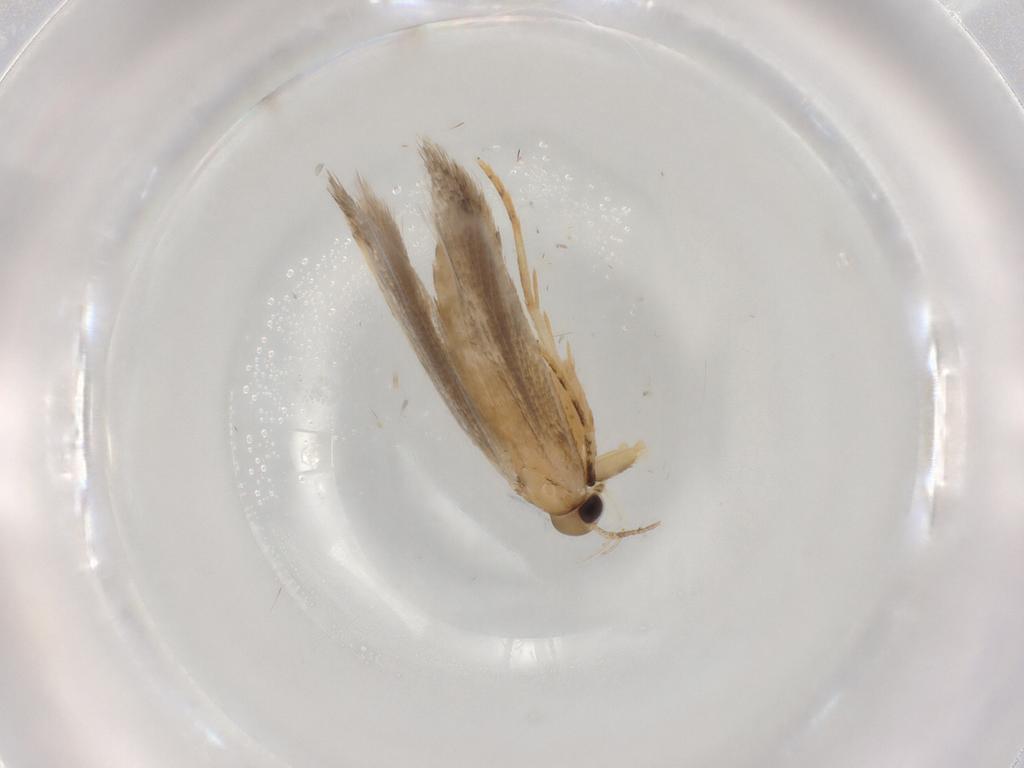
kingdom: Animalia
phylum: Arthropoda
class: Insecta
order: Lepidoptera
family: Autostichidae
